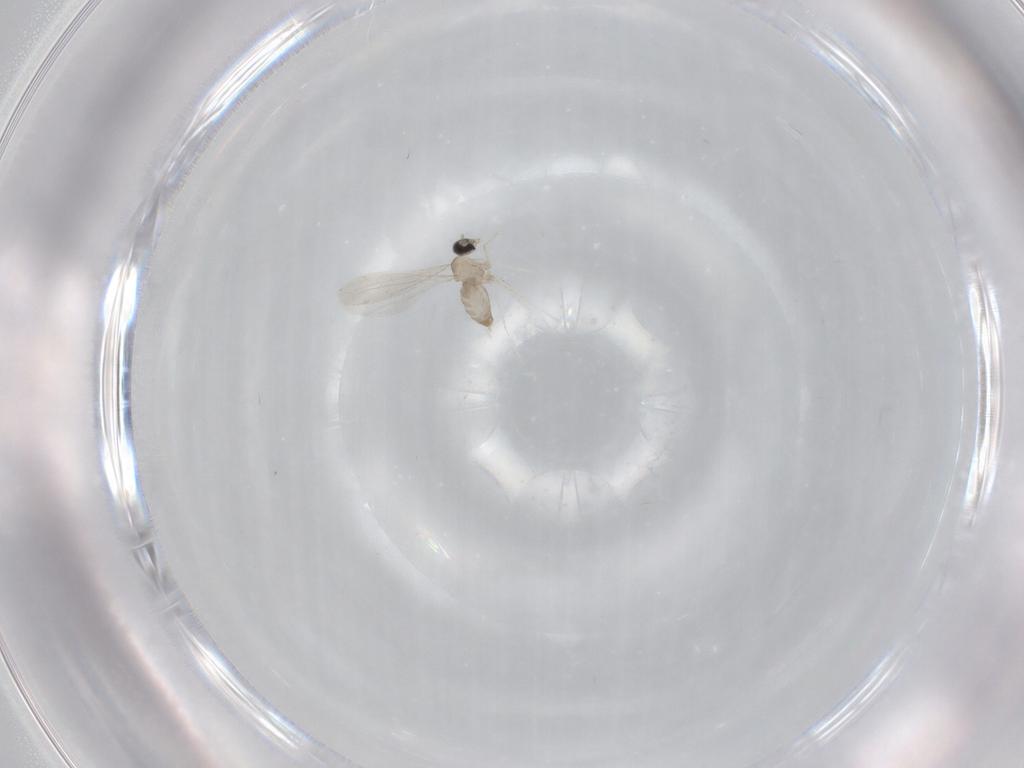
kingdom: Animalia
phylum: Arthropoda
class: Insecta
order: Diptera
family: Cecidomyiidae
